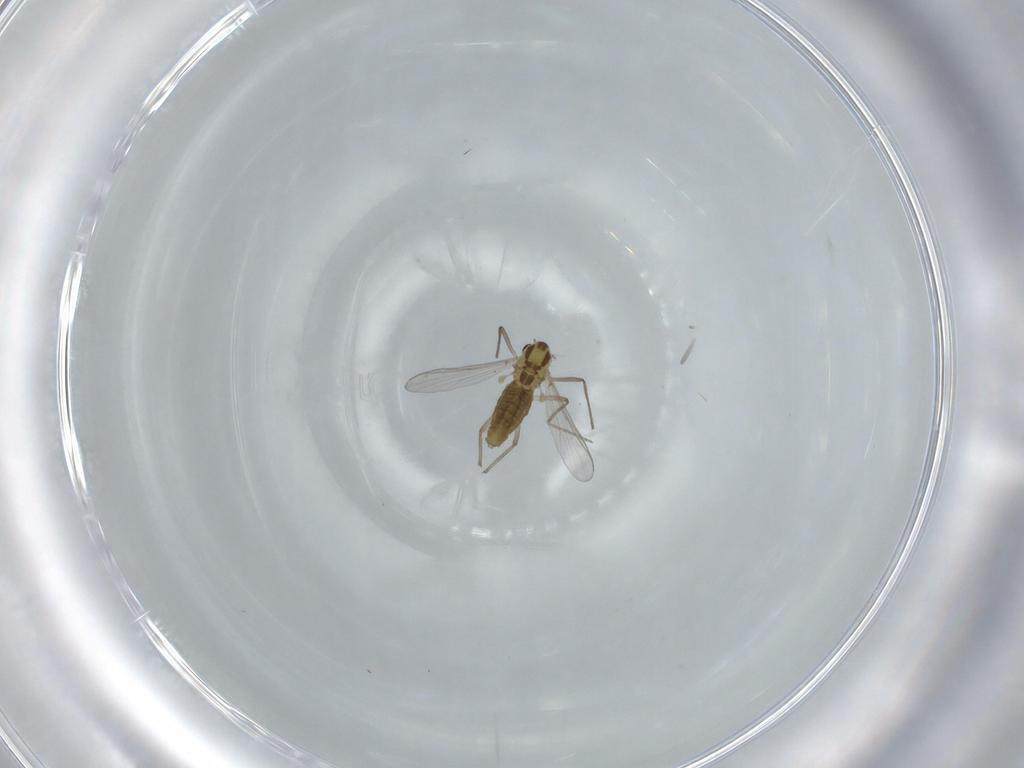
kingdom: Animalia
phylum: Arthropoda
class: Insecta
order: Diptera
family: Chironomidae
